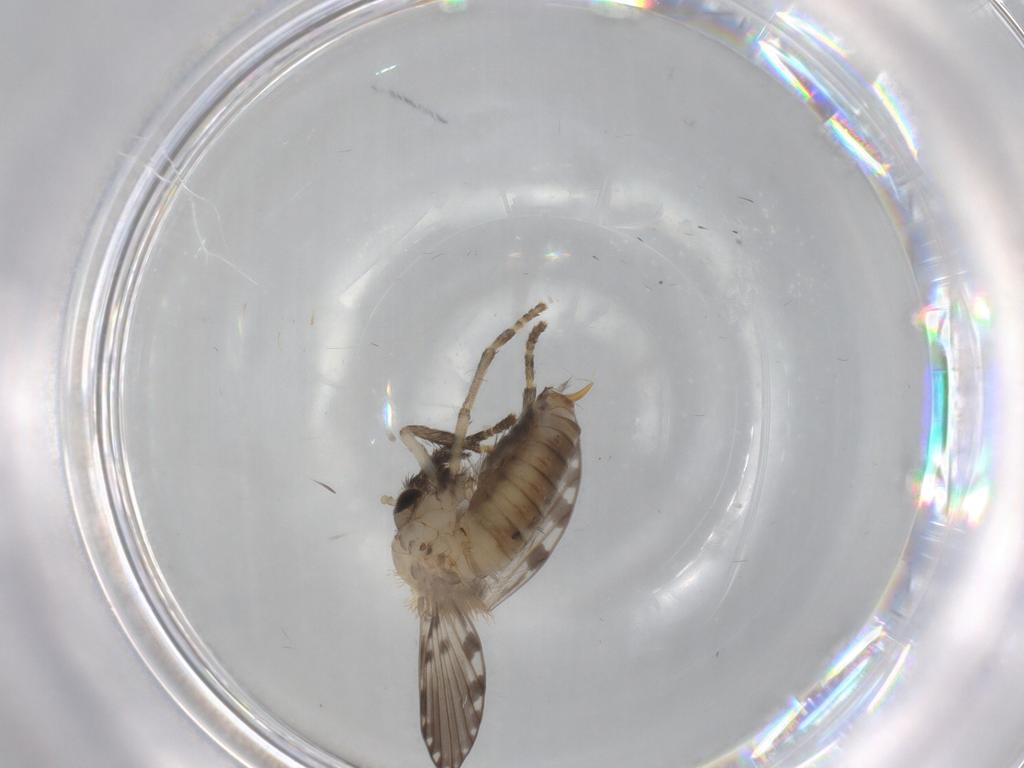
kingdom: Animalia
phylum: Arthropoda
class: Insecta
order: Diptera
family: Psychodidae
